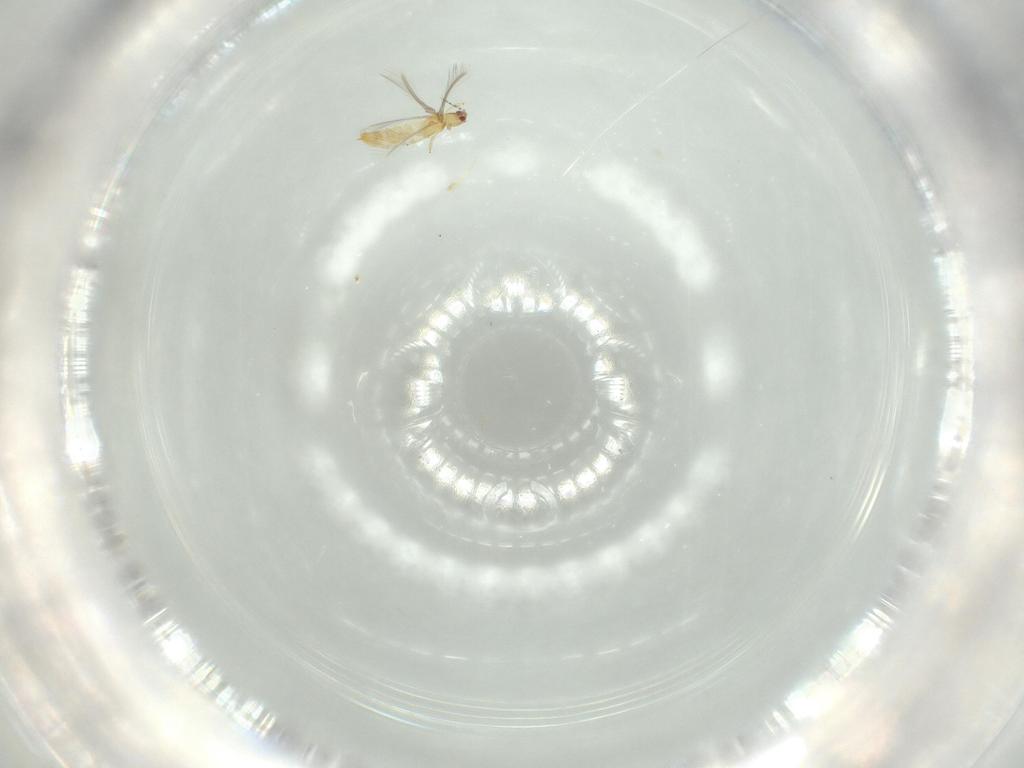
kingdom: Animalia
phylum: Arthropoda
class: Insecta
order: Thysanoptera
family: Thripidae
